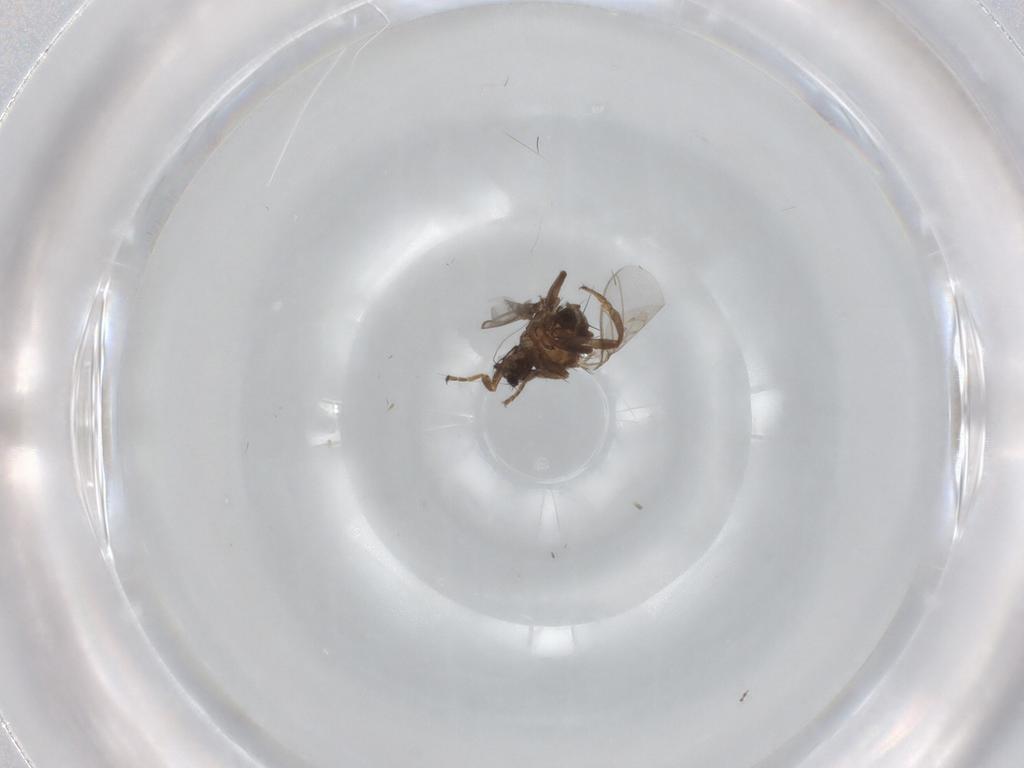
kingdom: Animalia
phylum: Arthropoda
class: Insecta
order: Diptera
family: Sphaeroceridae
